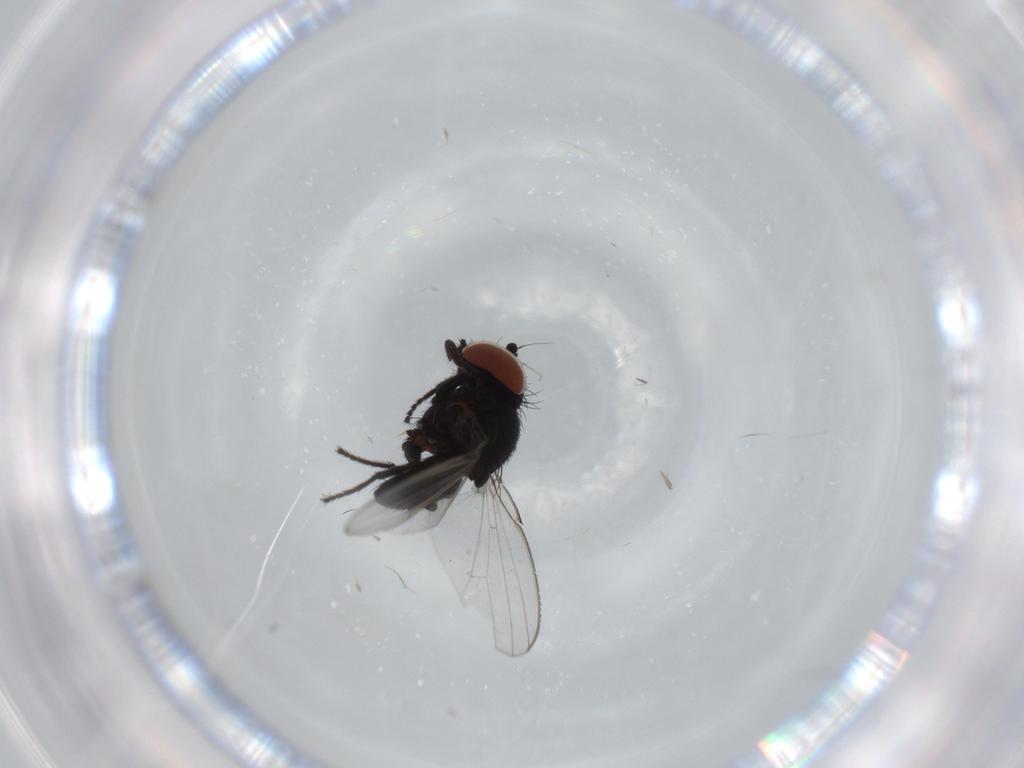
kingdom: Animalia
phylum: Arthropoda
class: Insecta
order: Diptera
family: Milichiidae
